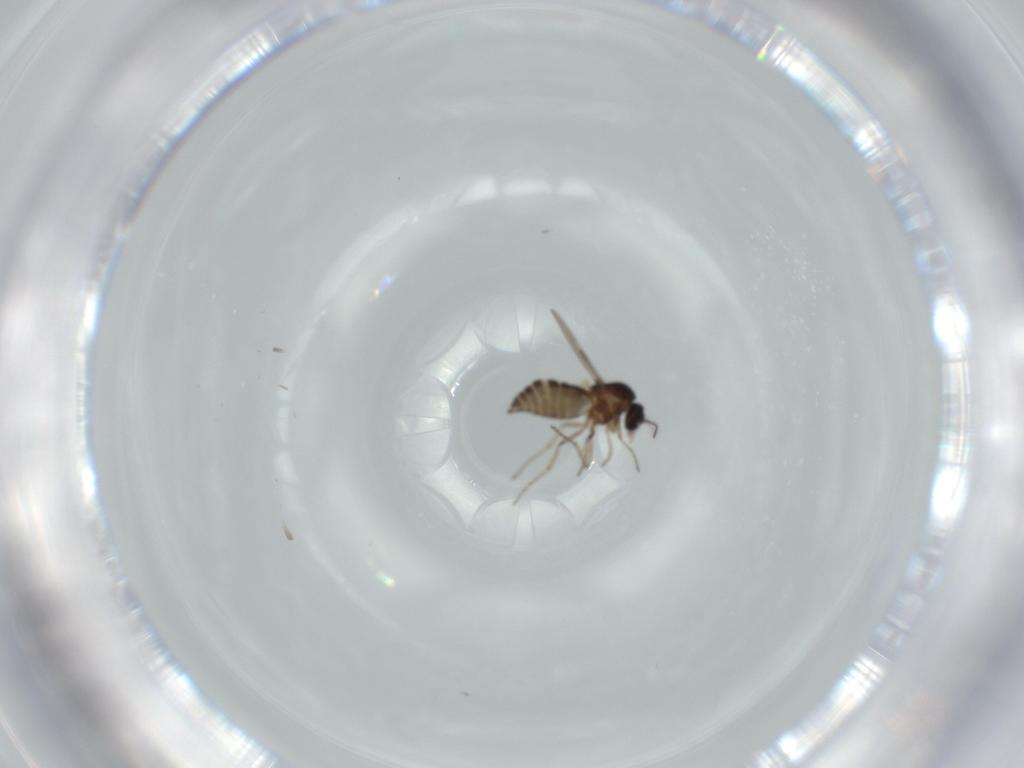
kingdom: Animalia
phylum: Arthropoda
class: Insecta
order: Diptera
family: Ceratopogonidae
